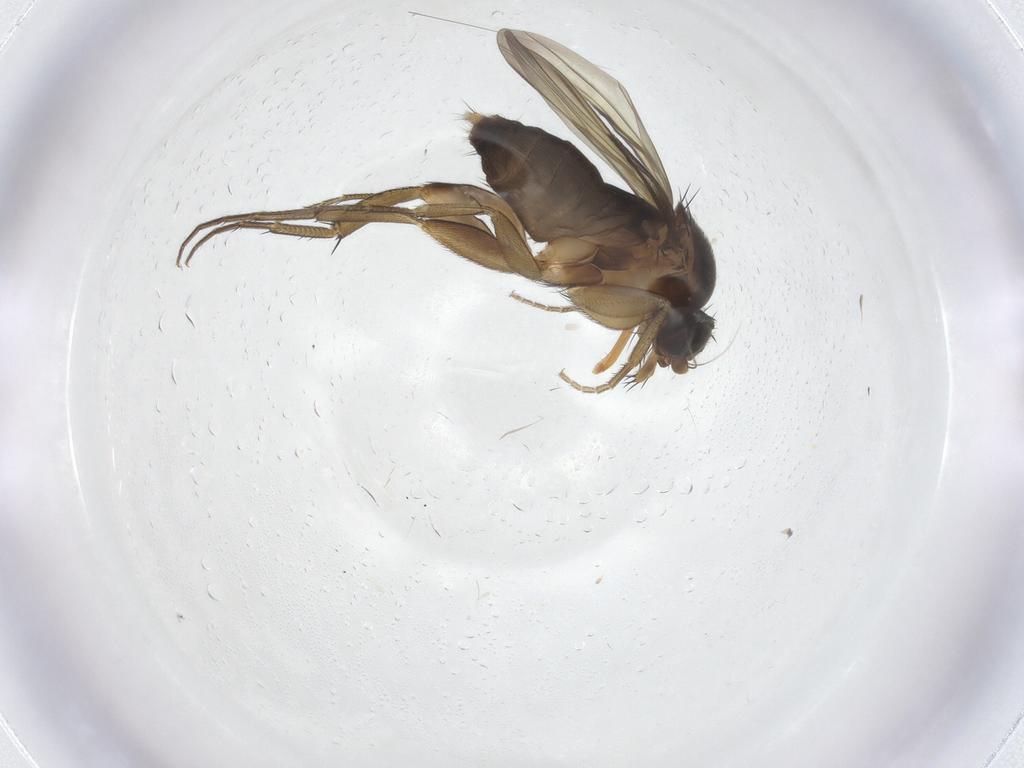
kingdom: Animalia
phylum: Arthropoda
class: Insecta
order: Diptera
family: Phoridae
